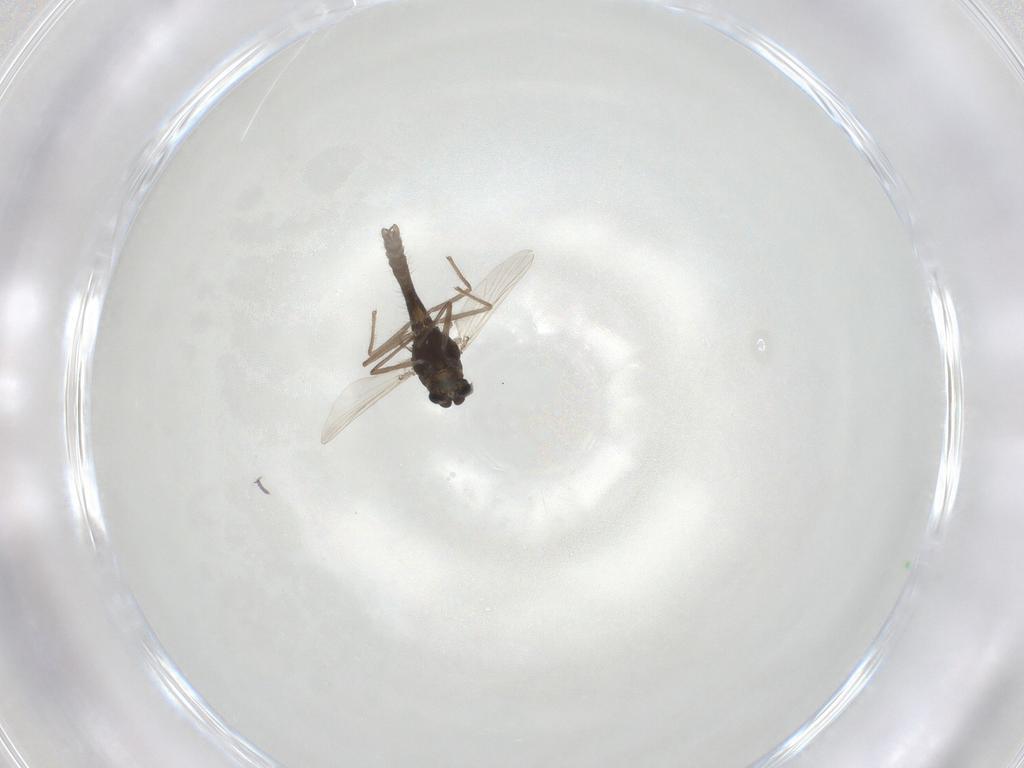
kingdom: Animalia
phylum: Arthropoda
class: Insecta
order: Diptera
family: Chironomidae
